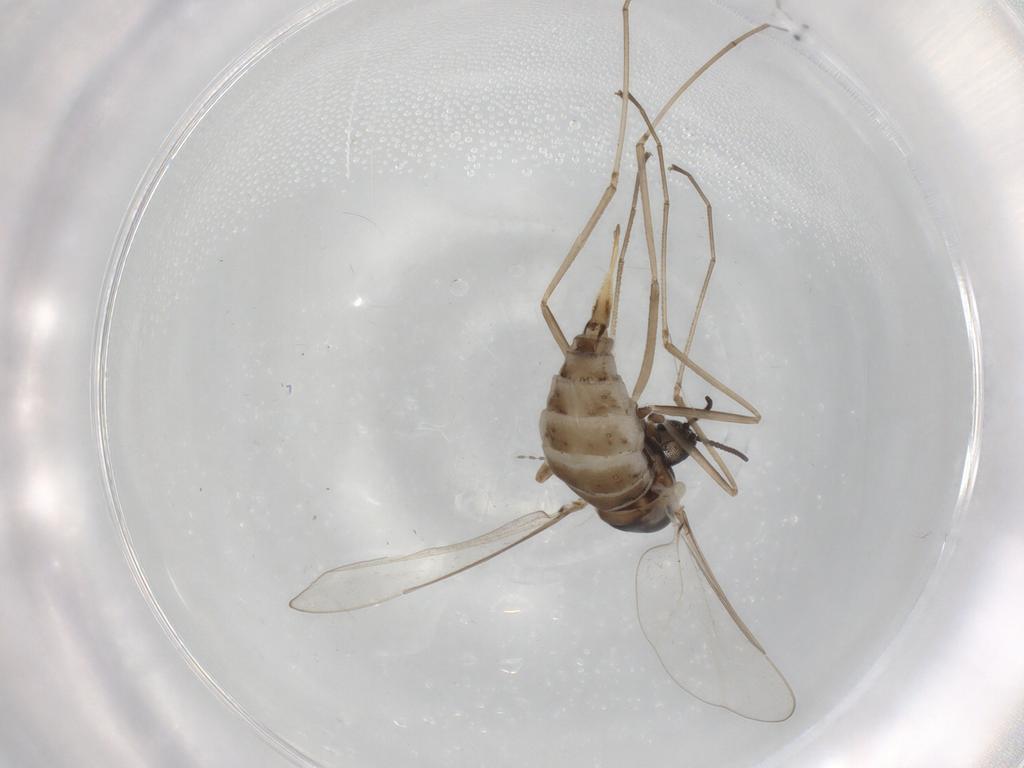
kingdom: Animalia
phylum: Arthropoda
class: Insecta
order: Diptera
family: Cecidomyiidae
